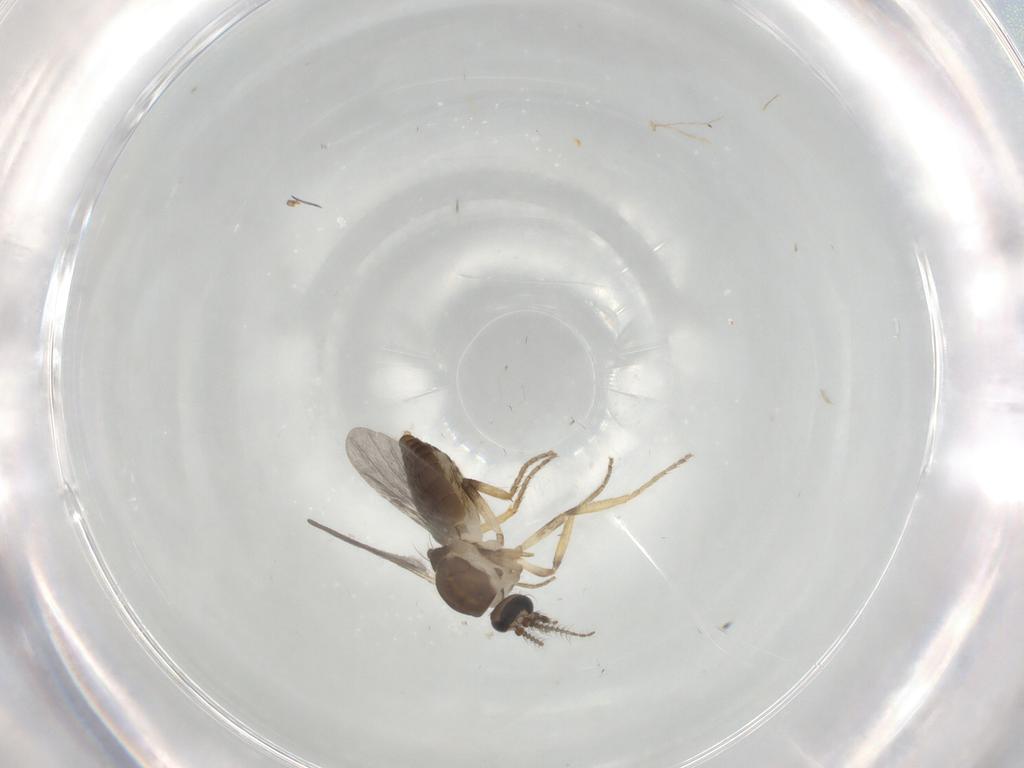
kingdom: Animalia
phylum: Arthropoda
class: Insecta
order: Diptera
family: Ceratopogonidae
